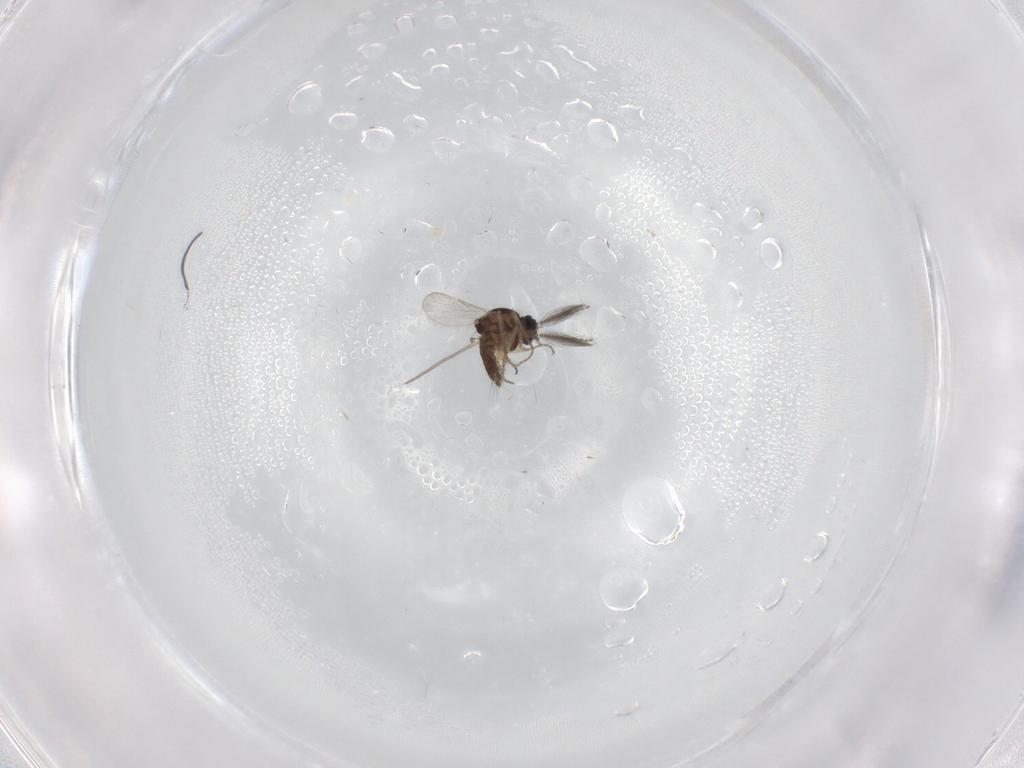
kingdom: Animalia
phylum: Arthropoda
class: Insecta
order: Diptera
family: Ceratopogonidae
